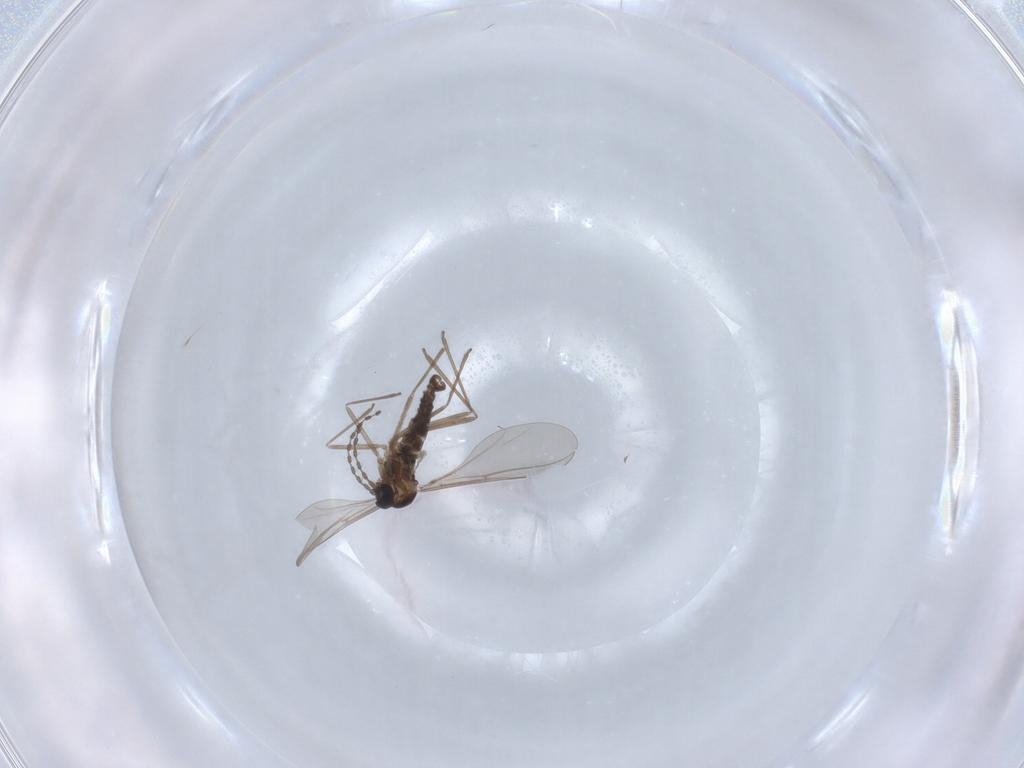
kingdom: Animalia
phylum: Arthropoda
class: Insecta
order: Diptera
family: Cecidomyiidae
